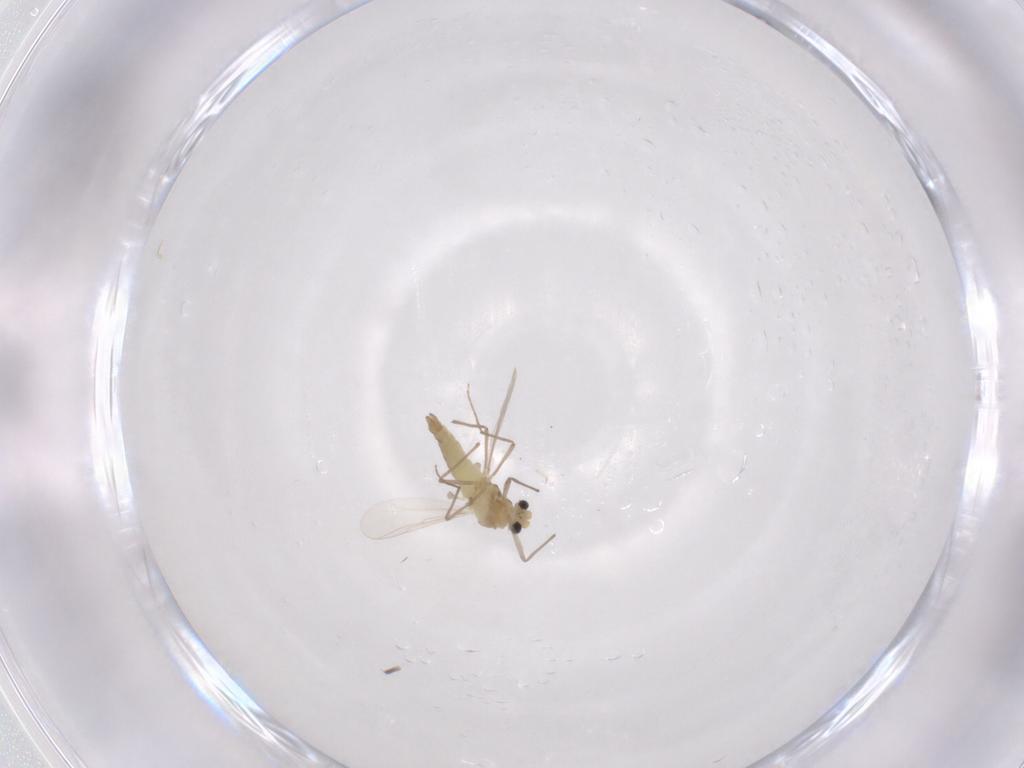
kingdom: Animalia
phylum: Arthropoda
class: Insecta
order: Diptera
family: Chironomidae
